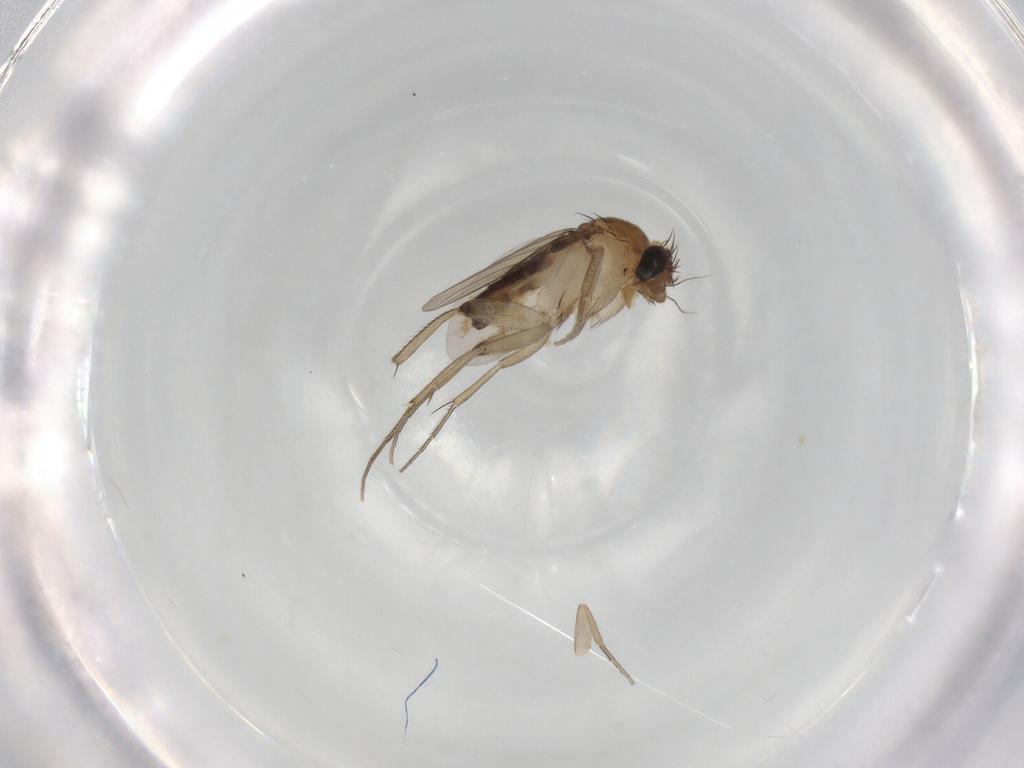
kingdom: Animalia
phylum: Arthropoda
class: Insecta
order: Diptera
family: Phoridae
